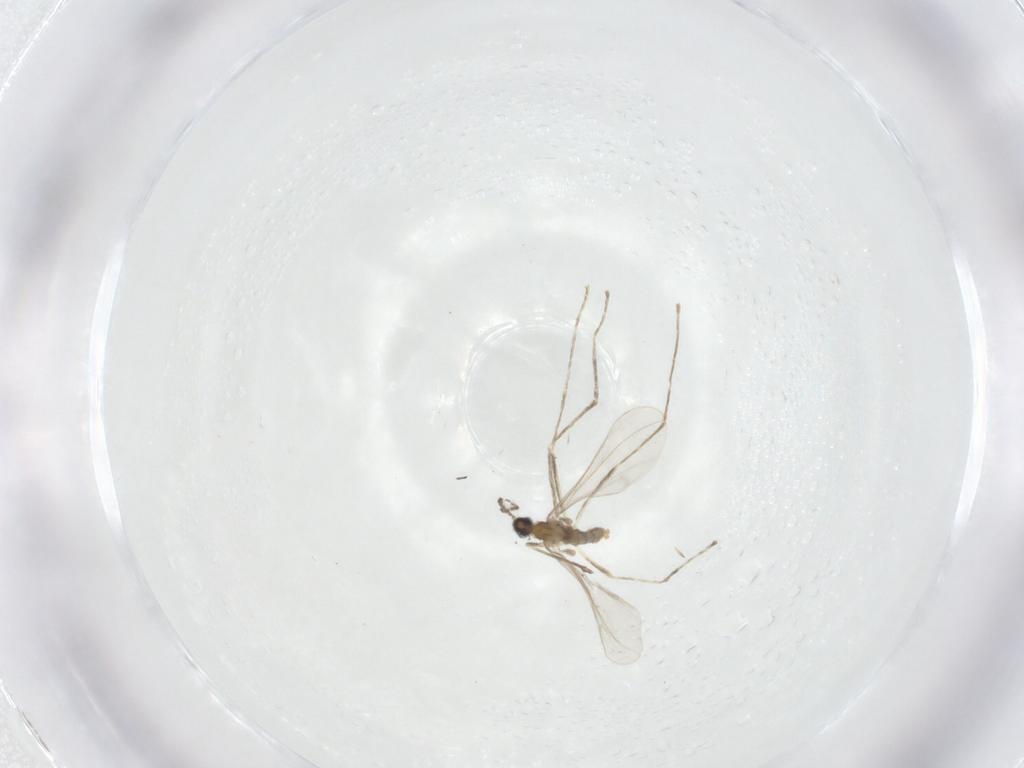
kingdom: Animalia
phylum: Arthropoda
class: Insecta
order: Diptera
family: Cecidomyiidae
